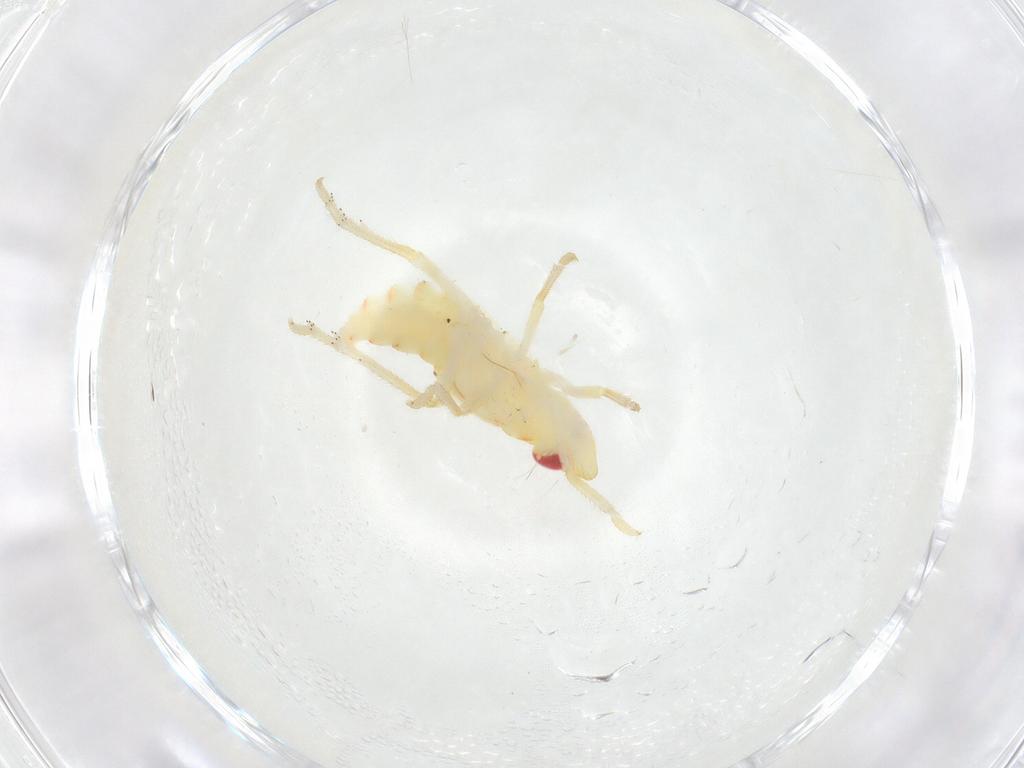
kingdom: Animalia
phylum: Arthropoda
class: Insecta
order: Hemiptera
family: Tropiduchidae
